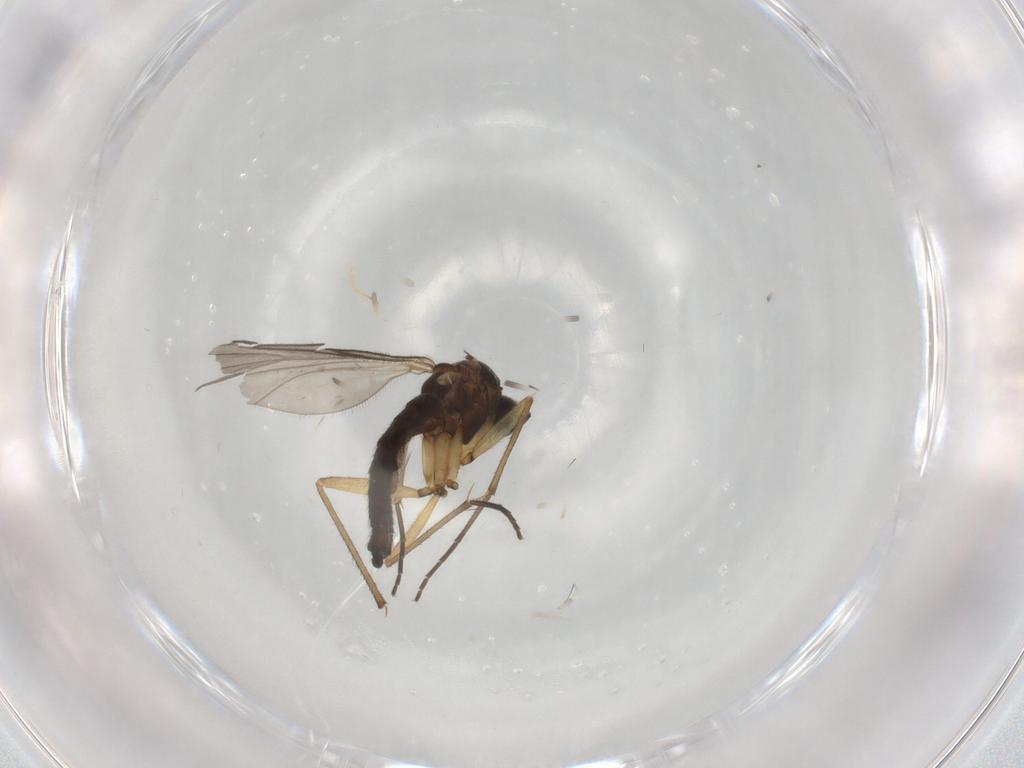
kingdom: Animalia
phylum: Arthropoda
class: Insecta
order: Diptera
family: Sciaridae
